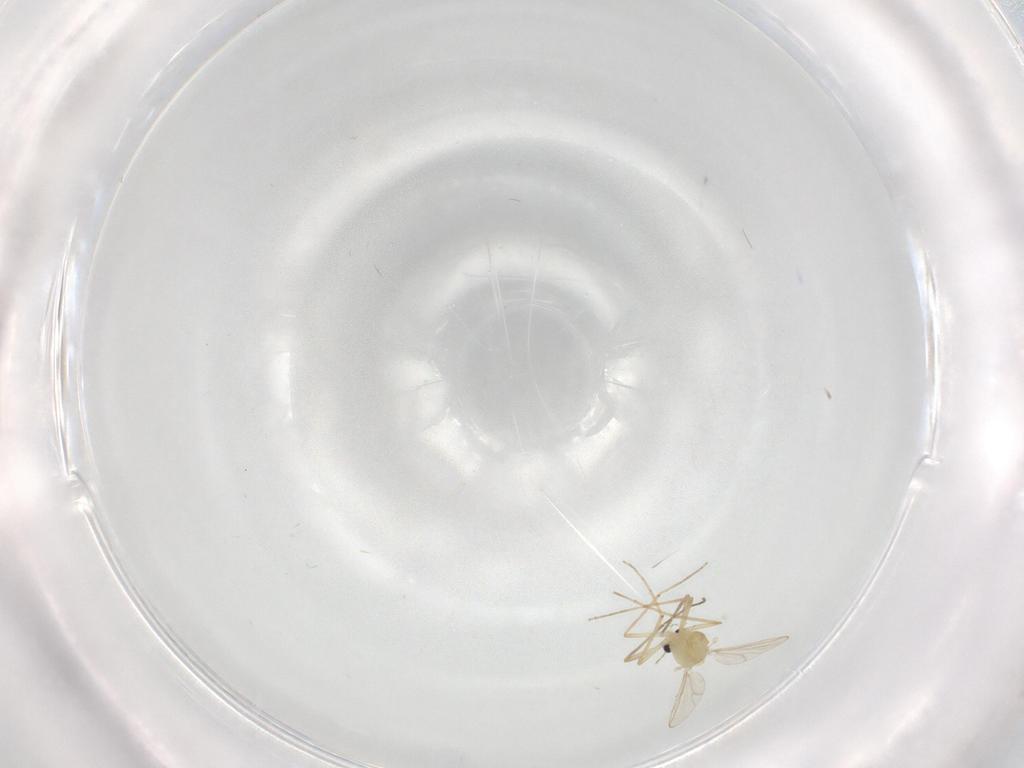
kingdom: Animalia
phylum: Arthropoda
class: Insecta
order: Diptera
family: Chironomidae
